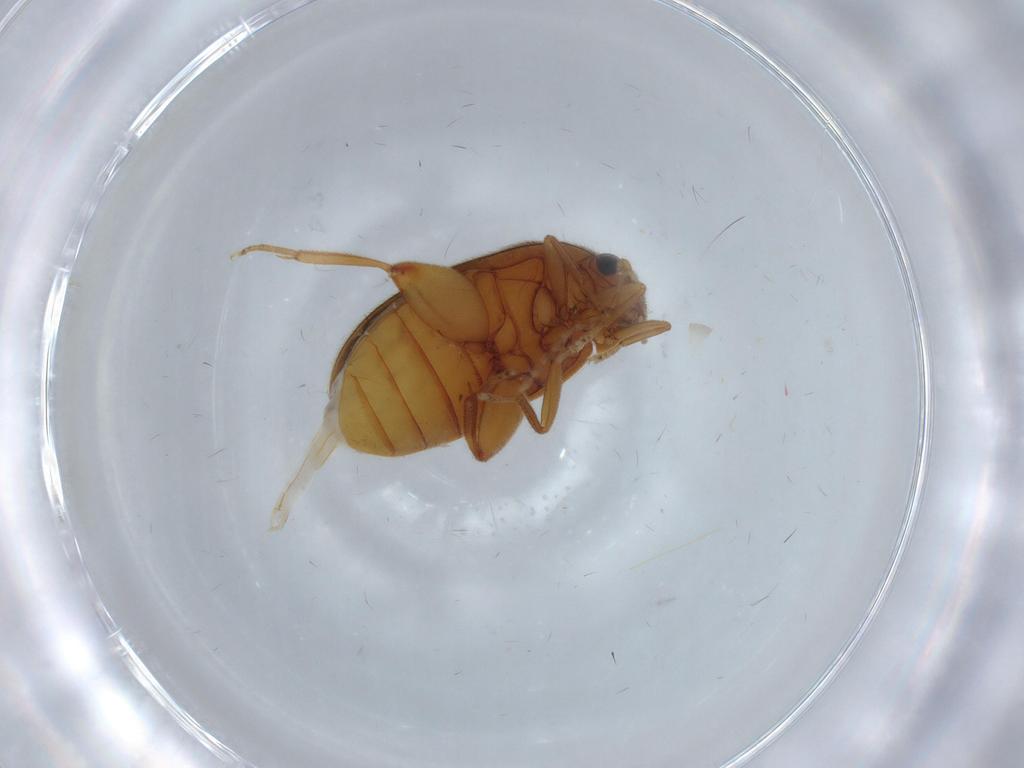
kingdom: Animalia
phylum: Arthropoda
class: Insecta
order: Coleoptera
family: Scirtidae
